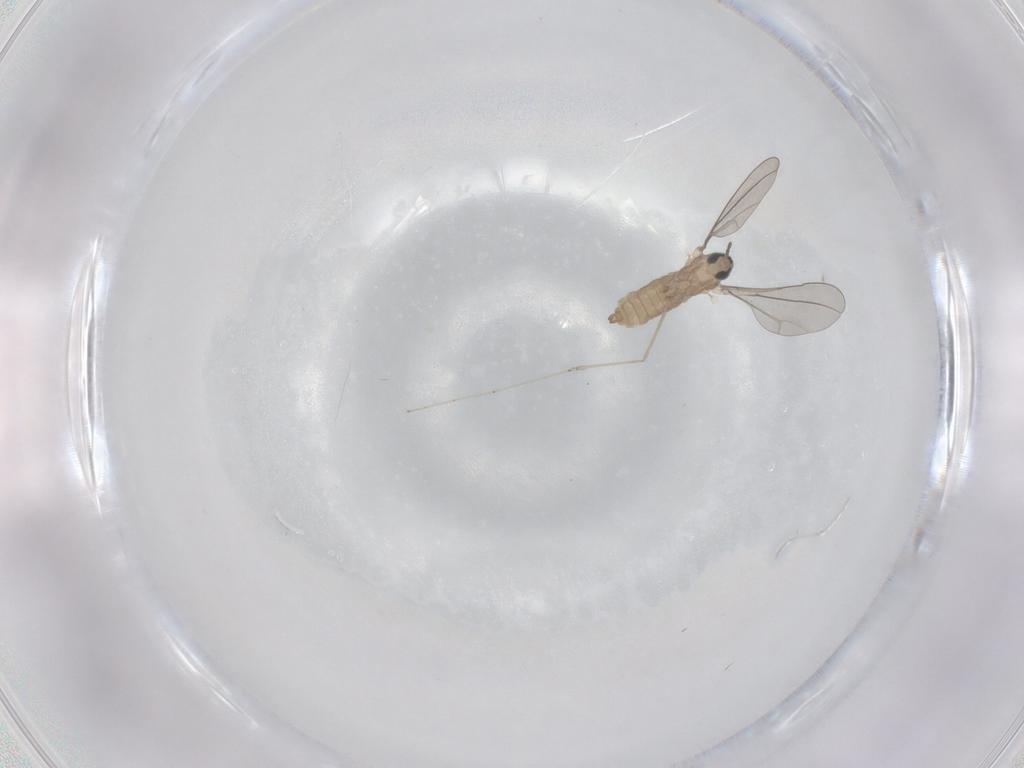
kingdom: Animalia
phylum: Arthropoda
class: Insecta
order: Diptera
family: Cecidomyiidae
